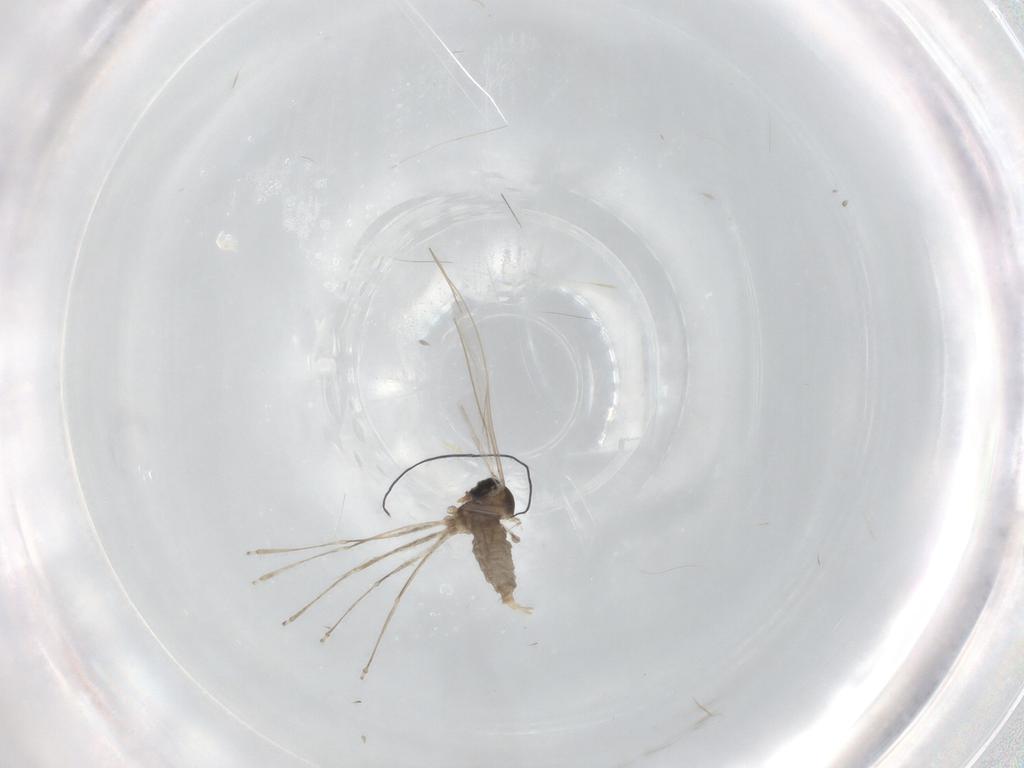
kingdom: Animalia
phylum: Arthropoda
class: Insecta
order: Diptera
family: Cecidomyiidae
